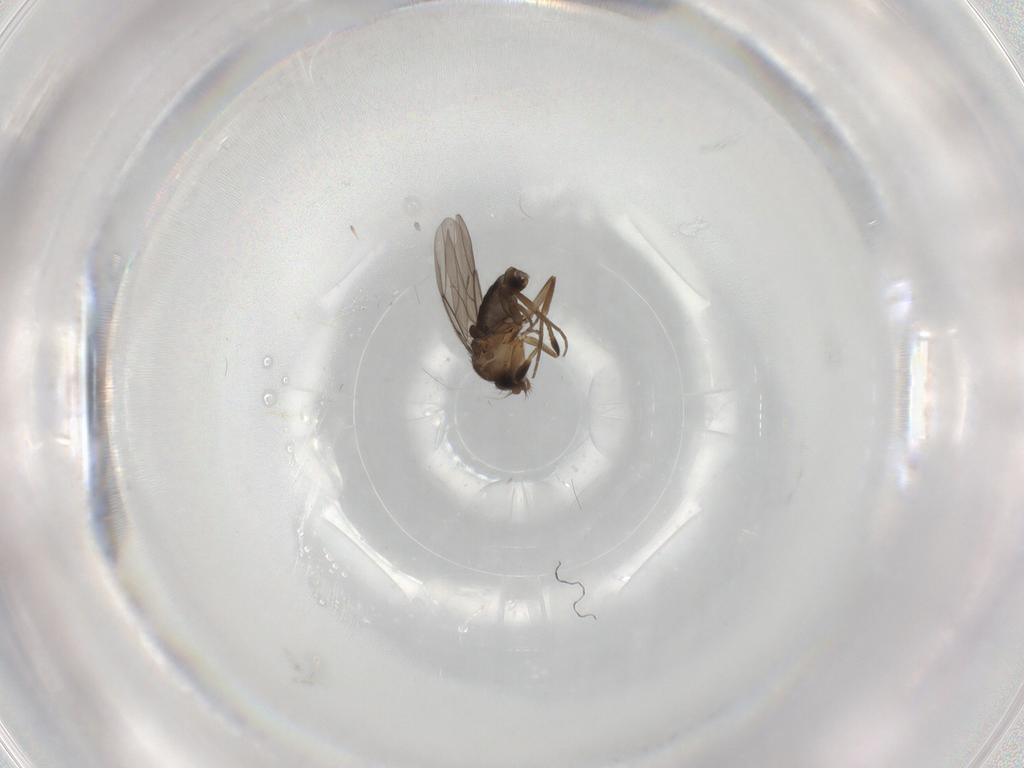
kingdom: Animalia
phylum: Arthropoda
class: Insecta
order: Diptera
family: Phoridae
